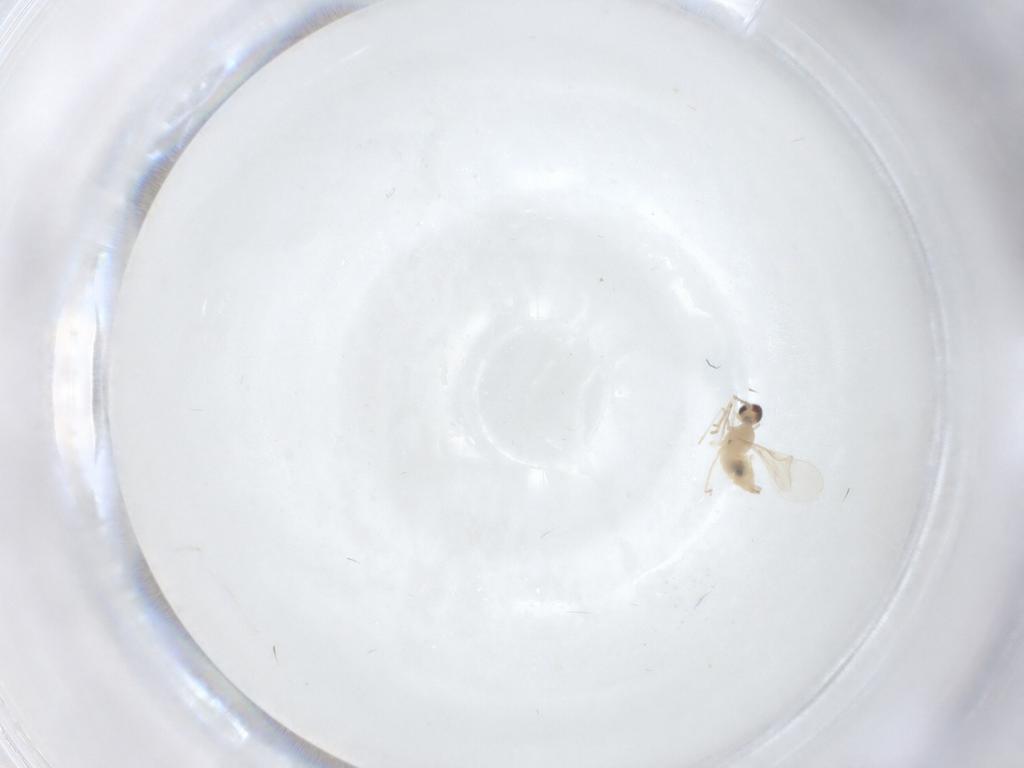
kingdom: Animalia
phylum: Arthropoda
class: Insecta
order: Diptera
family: Cecidomyiidae
